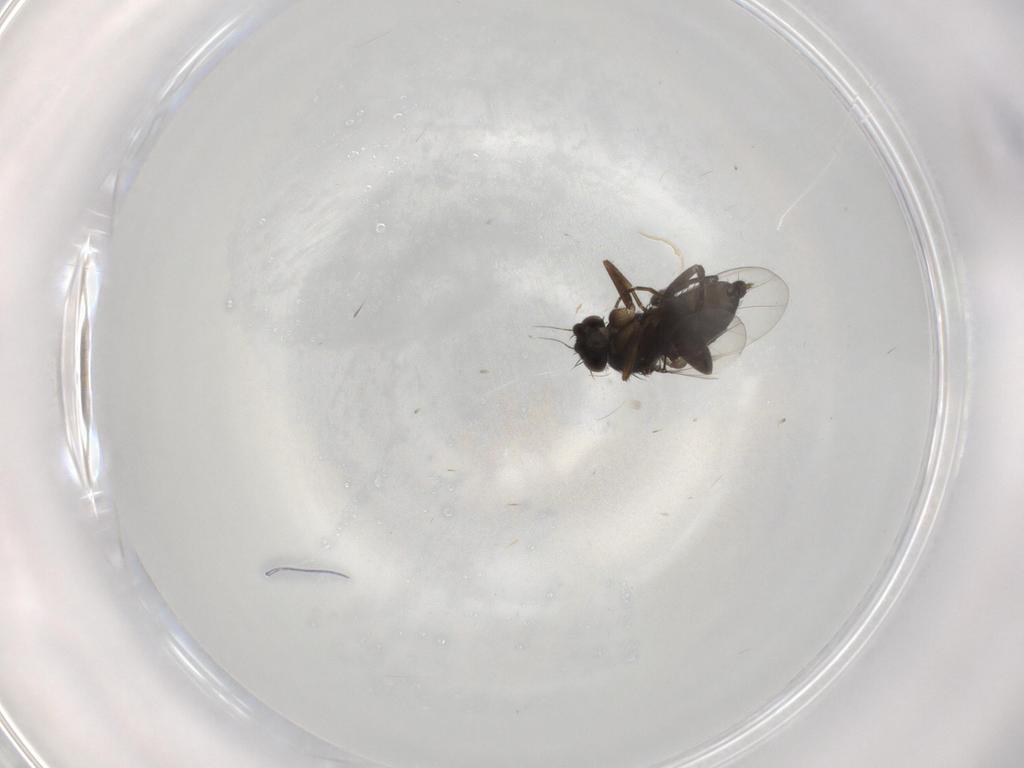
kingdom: Animalia
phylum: Arthropoda
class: Insecta
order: Diptera
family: Phoridae
